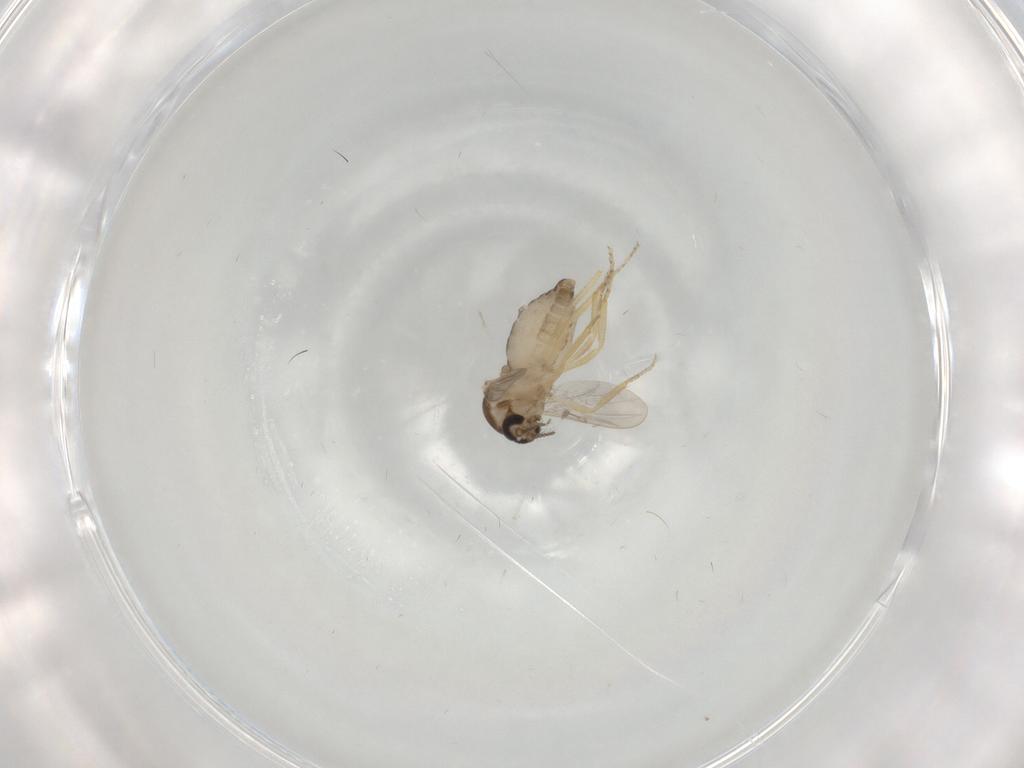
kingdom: Animalia
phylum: Arthropoda
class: Insecta
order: Diptera
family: Ceratopogonidae
